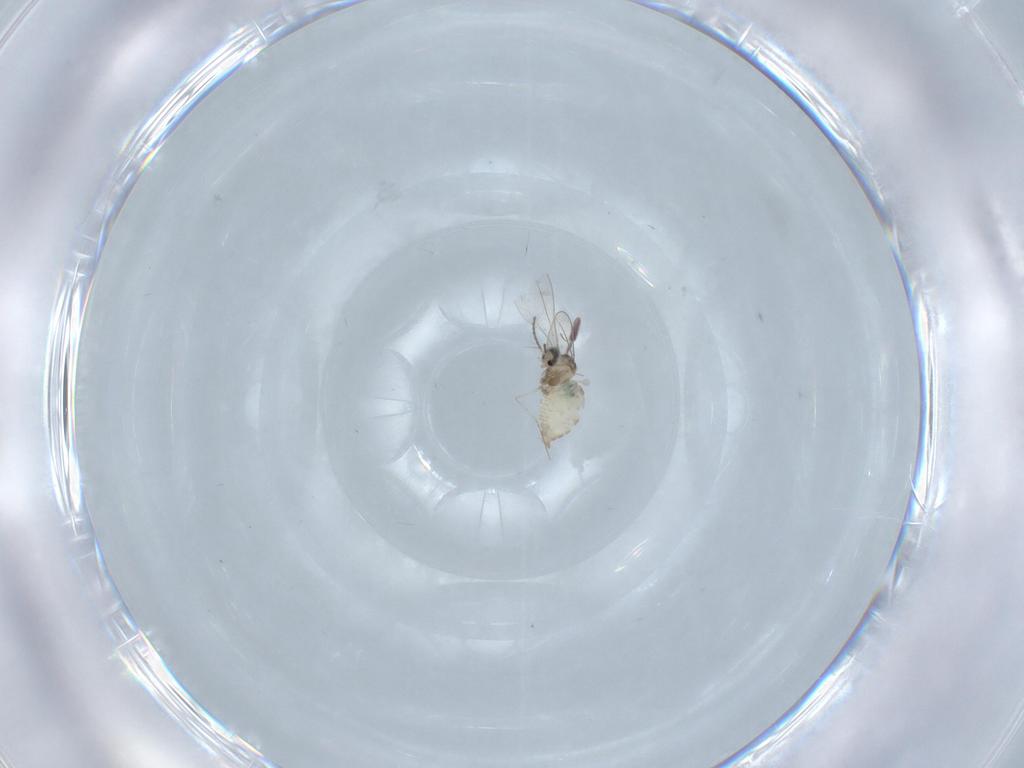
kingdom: Animalia
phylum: Arthropoda
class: Insecta
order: Diptera
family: Cecidomyiidae
